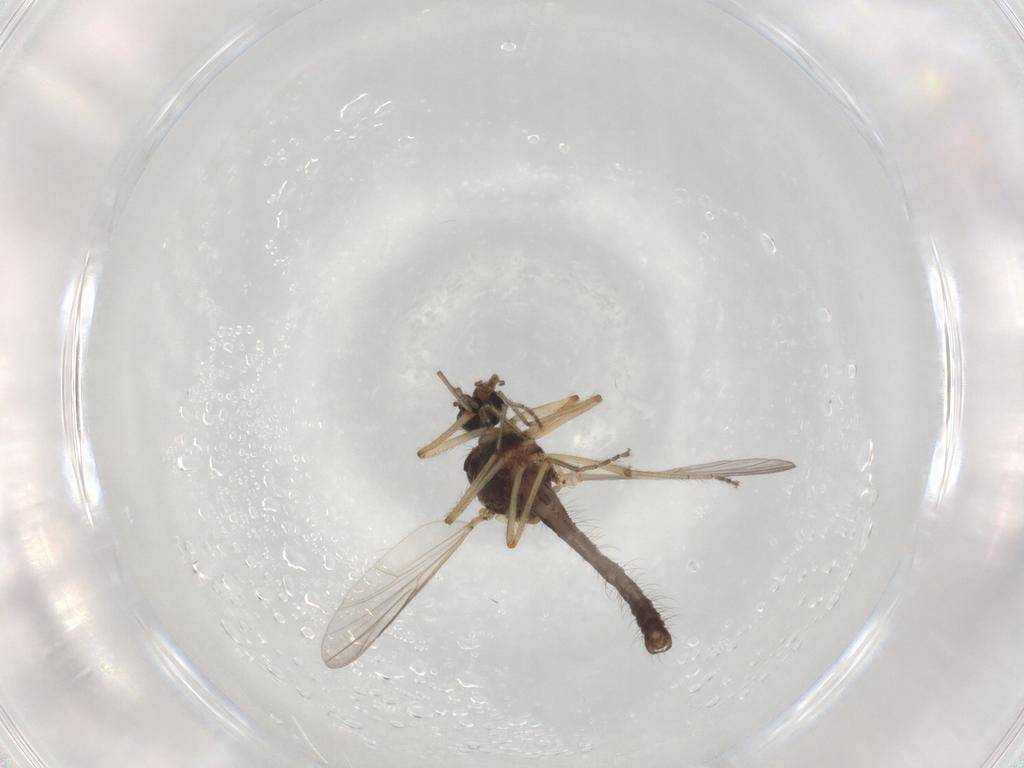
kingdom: Animalia
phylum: Arthropoda
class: Insecta
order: Diptera
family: Ceratopogonidae
